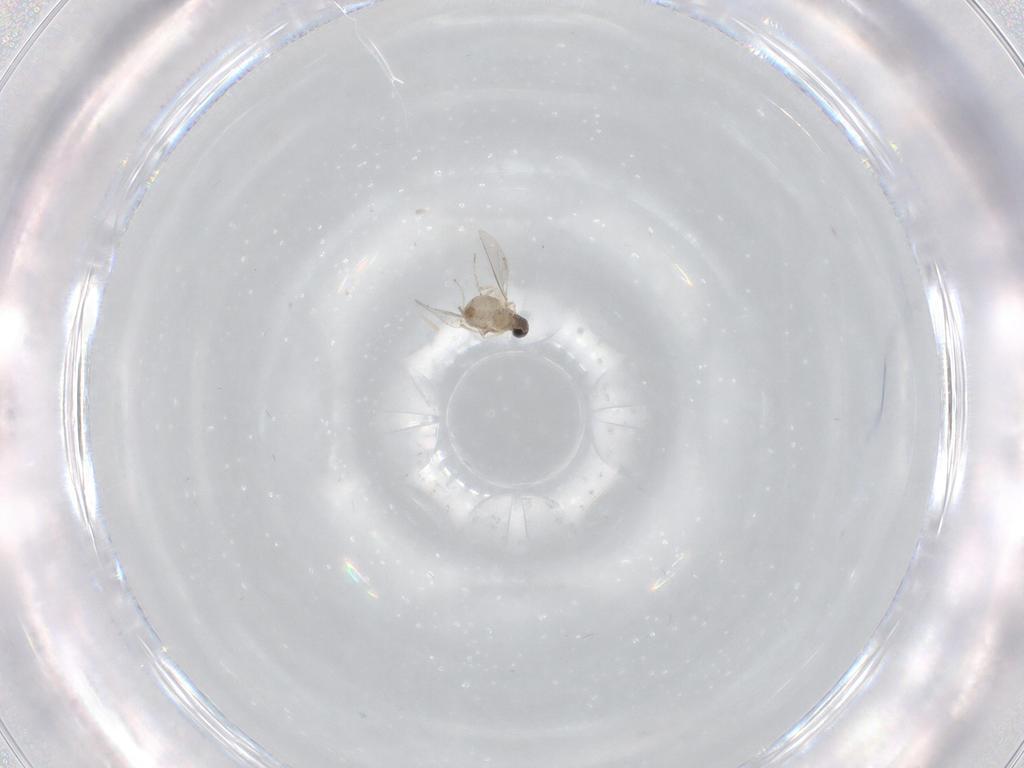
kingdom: Animalia
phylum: Arthropoda
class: Insecta
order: Diptera
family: Cecidomyiidae
